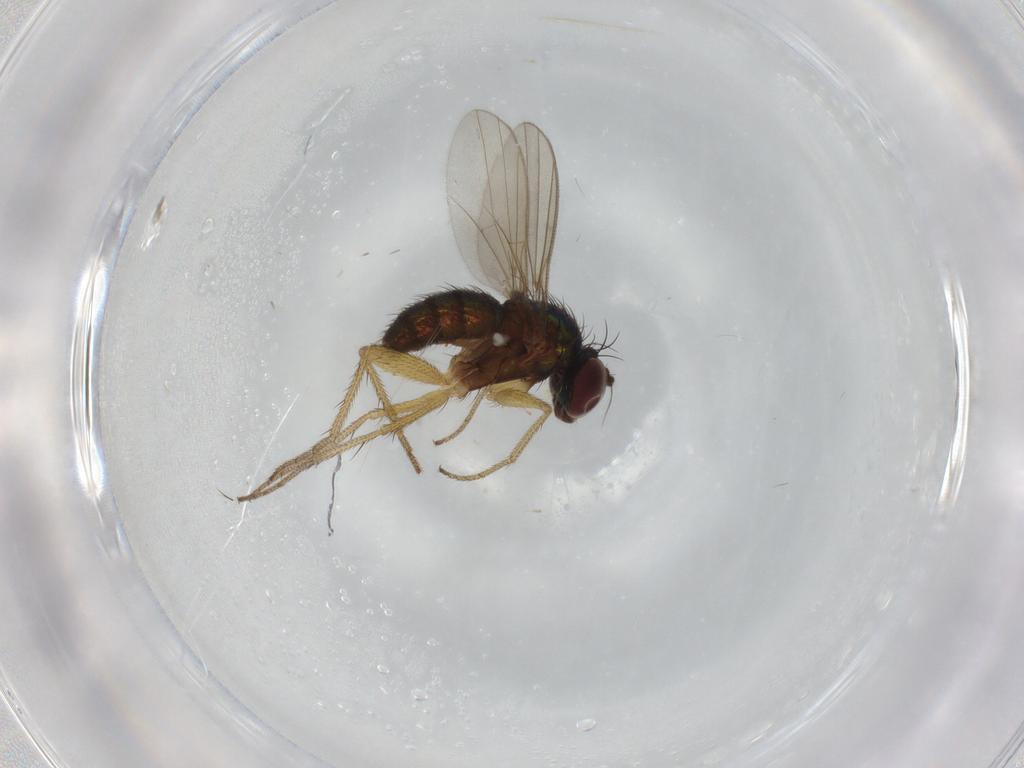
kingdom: Animalia
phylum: Arthropoda
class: Insecta
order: Diptera
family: Dolichopodidae
